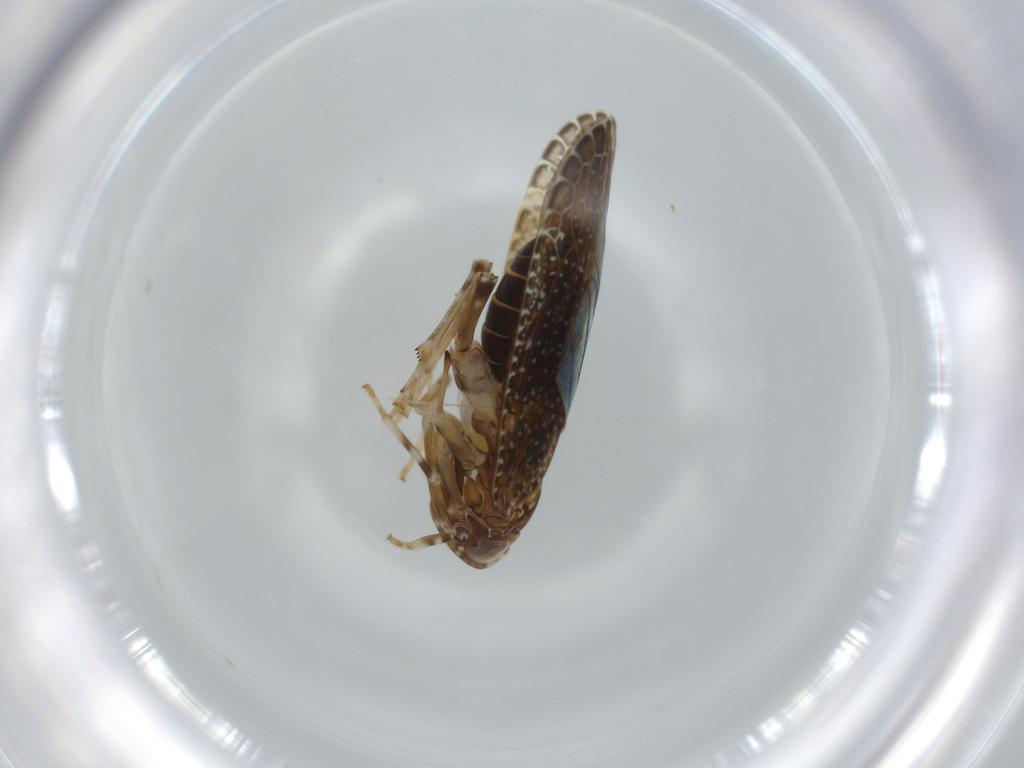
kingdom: Animalia
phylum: Arthropoda
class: Insecta
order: Hemiptera
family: Achilidae
